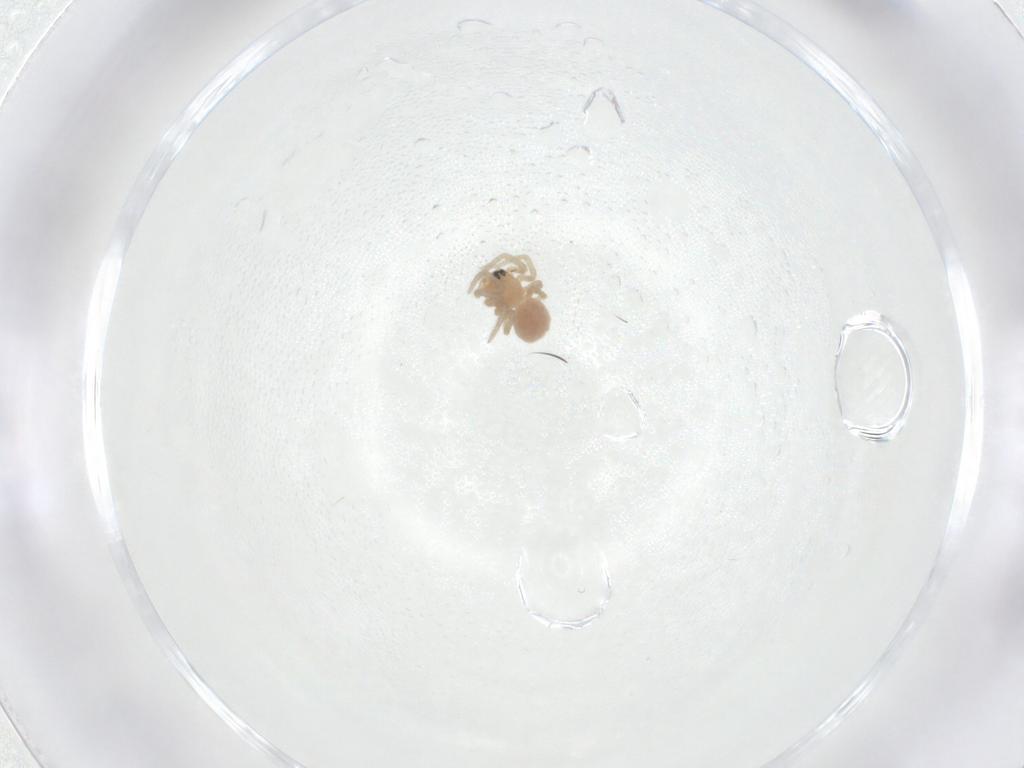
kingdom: Animalia
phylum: Arthropoda
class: Arachnida
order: Araneae
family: Linyphiidae
